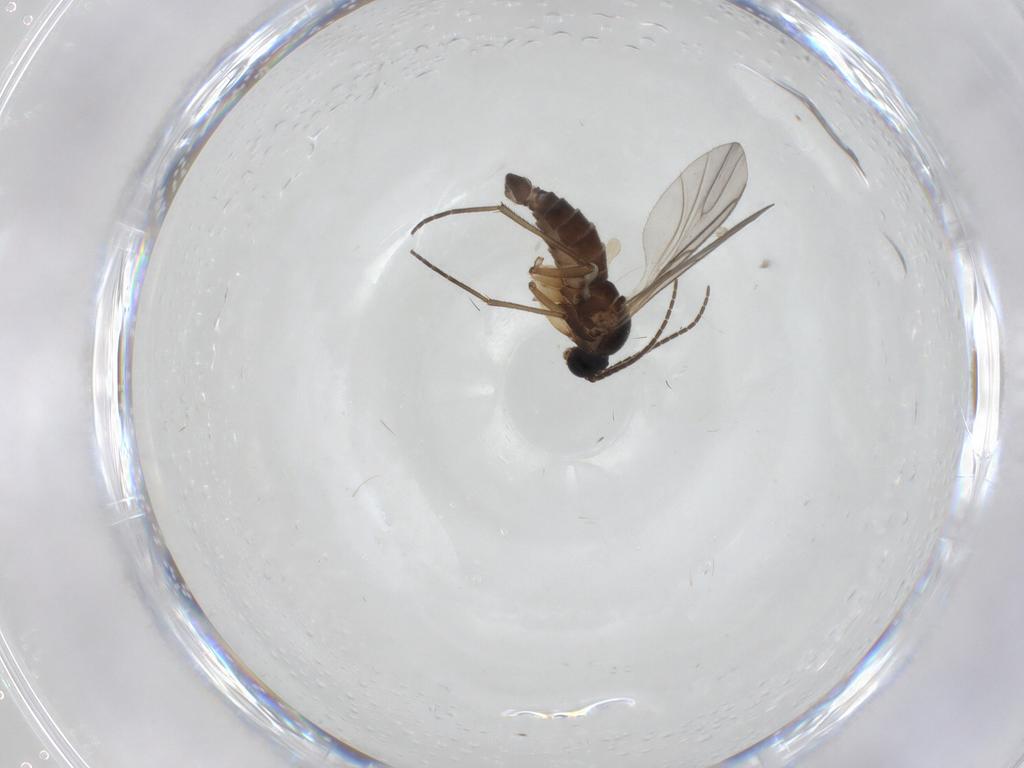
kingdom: Animalia
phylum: Arthropoda
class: Insecta
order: Diptera
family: Sciaridae
